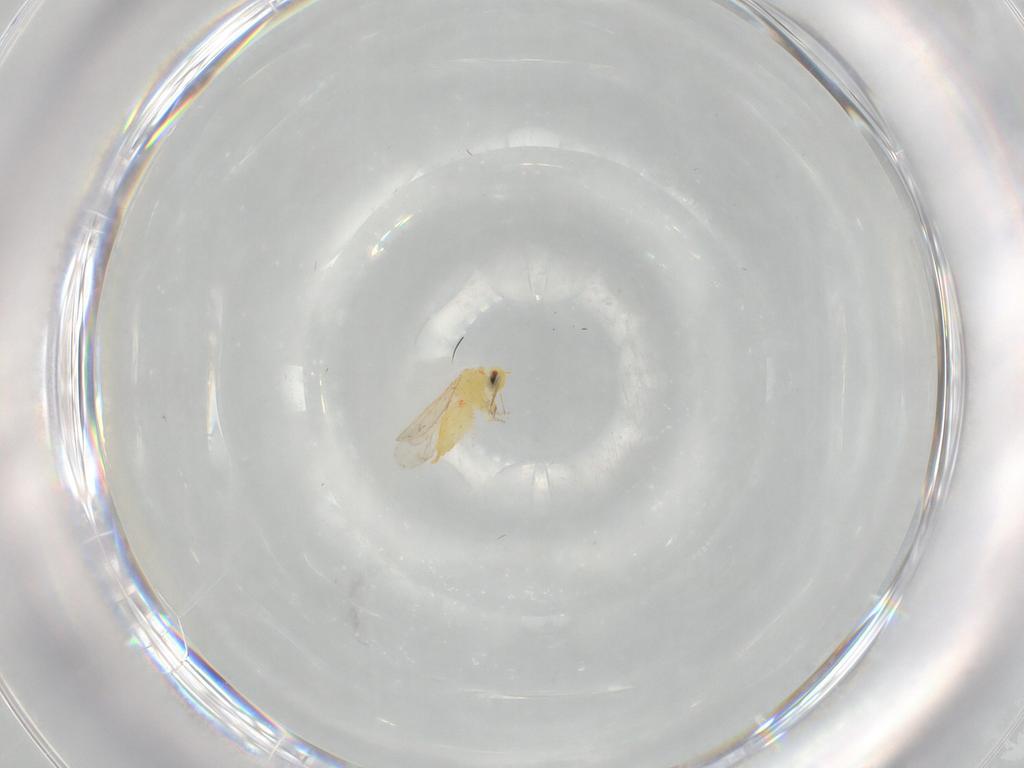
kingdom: Animalia
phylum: Arthropoda
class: Insecta
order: Diptera
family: Phoridae
